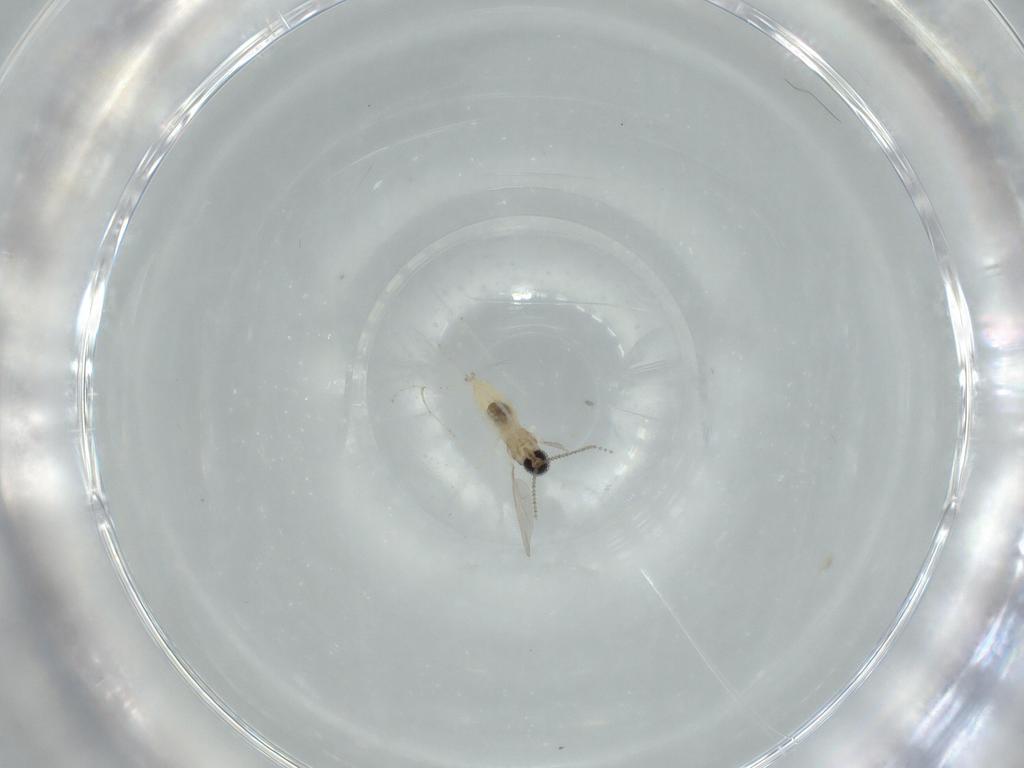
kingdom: Animalia
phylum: Arthropoda
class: Insecta
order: Diptera
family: Cecidomyiidae
